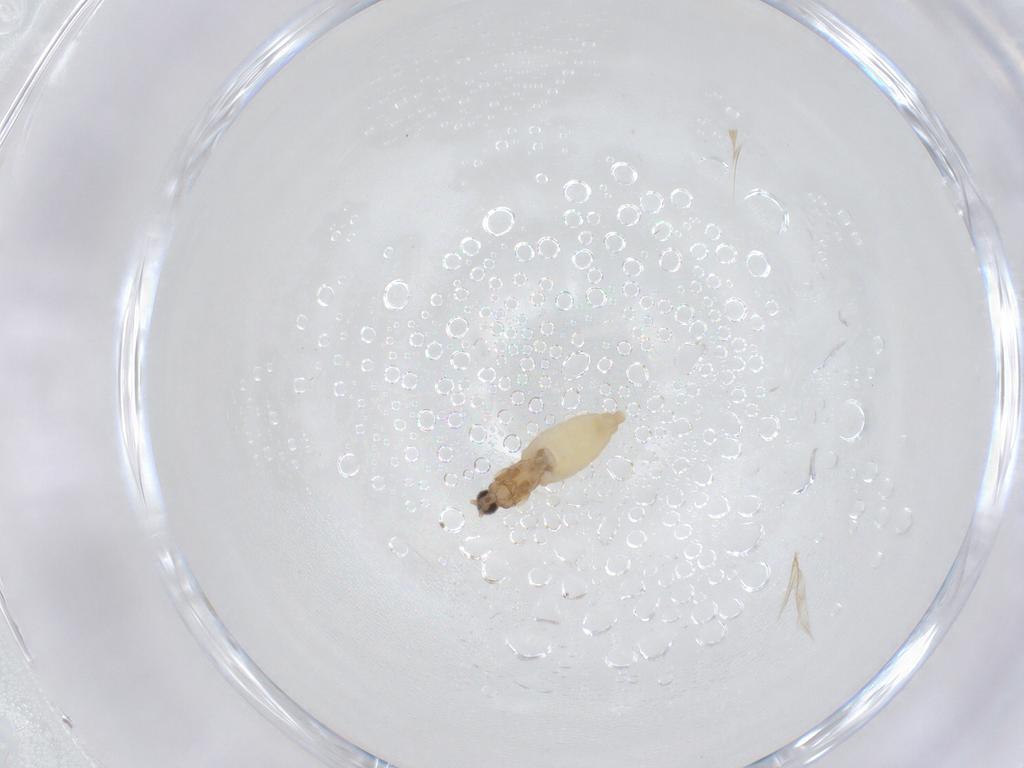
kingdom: Animalia
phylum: Arthropoda
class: Insecta
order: Diptera
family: Cecidomyiidae
